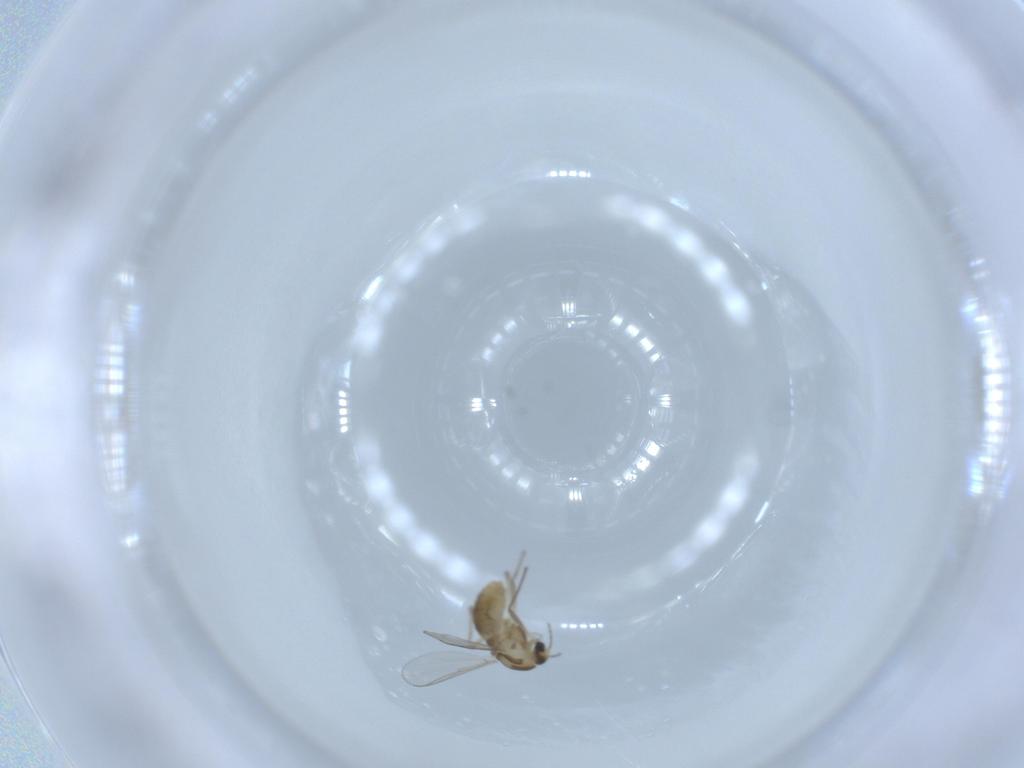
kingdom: Animalia
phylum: Arthropoda
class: Insecta
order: Diptera
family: Chironomidae
